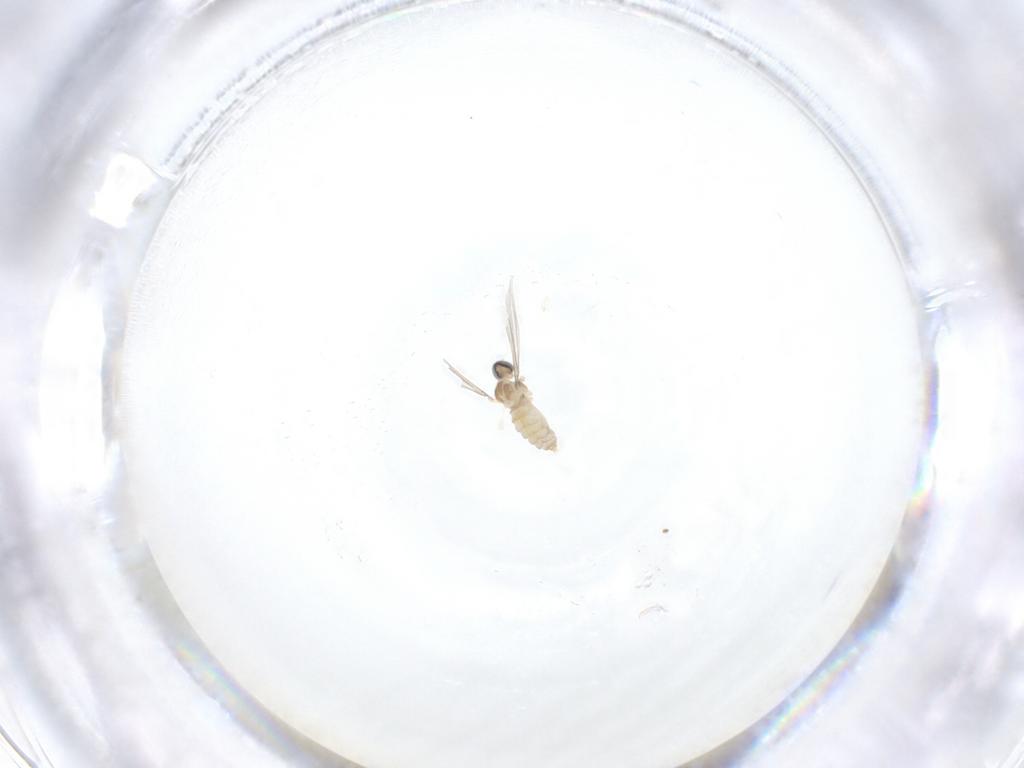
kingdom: Animalia
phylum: Arthropoda
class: Insecta
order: Diptera
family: Cecidomyiidae
